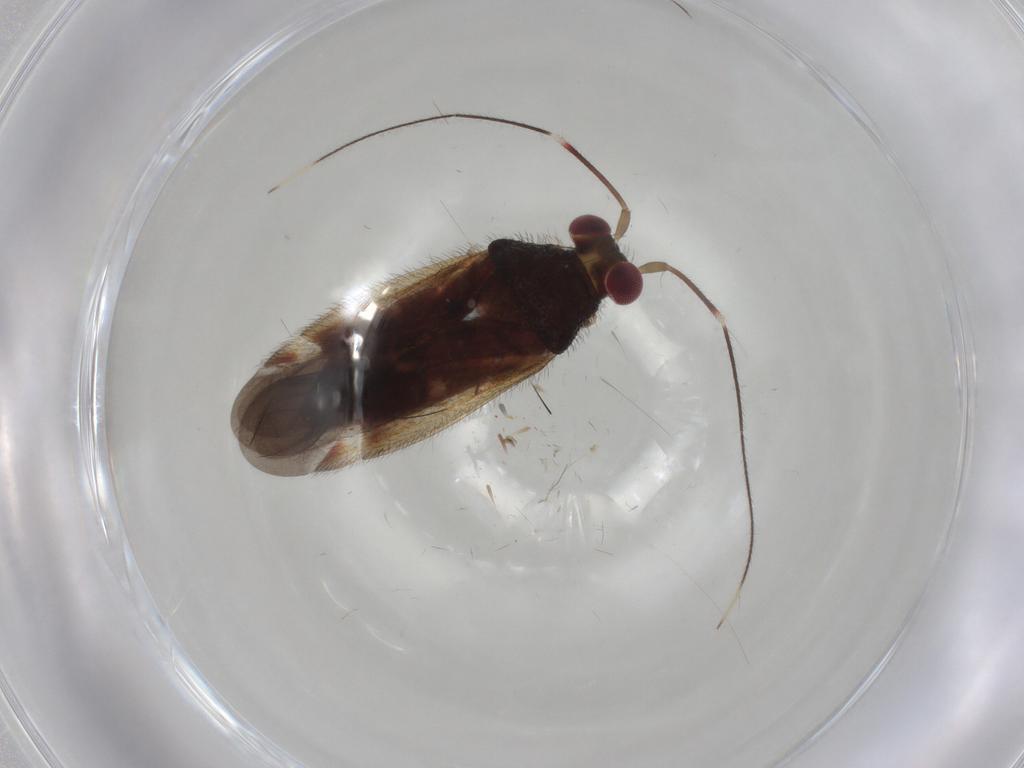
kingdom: Animalia
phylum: Arthropoda
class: Insecta
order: Hemiptera
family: Miridae
